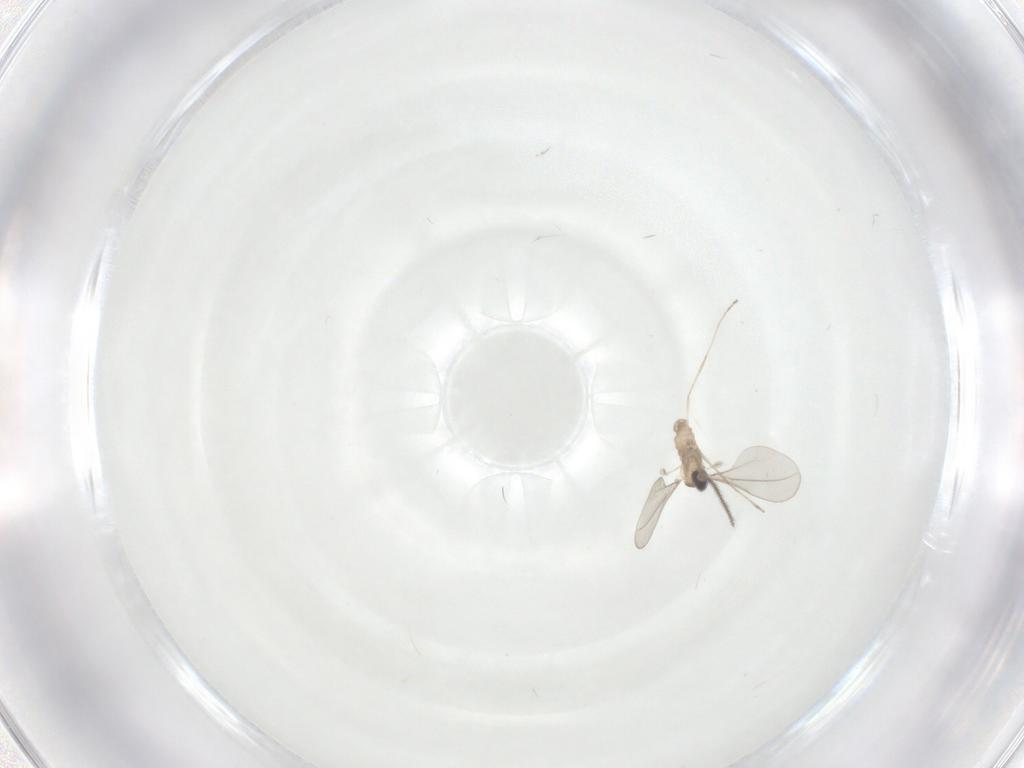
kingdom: Animalia
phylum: Arthropoda
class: Insecta
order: Diptera
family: Chironomidae
